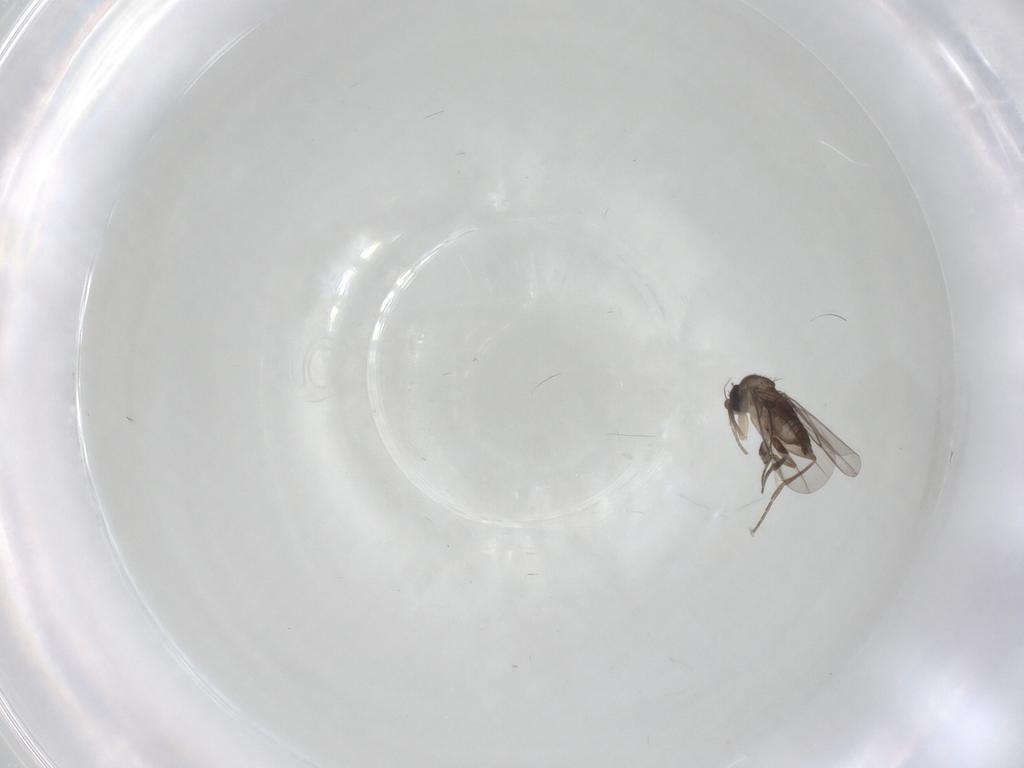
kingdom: Animalia
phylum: Arthropoda
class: Insecta
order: Diptera
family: Phoridae
